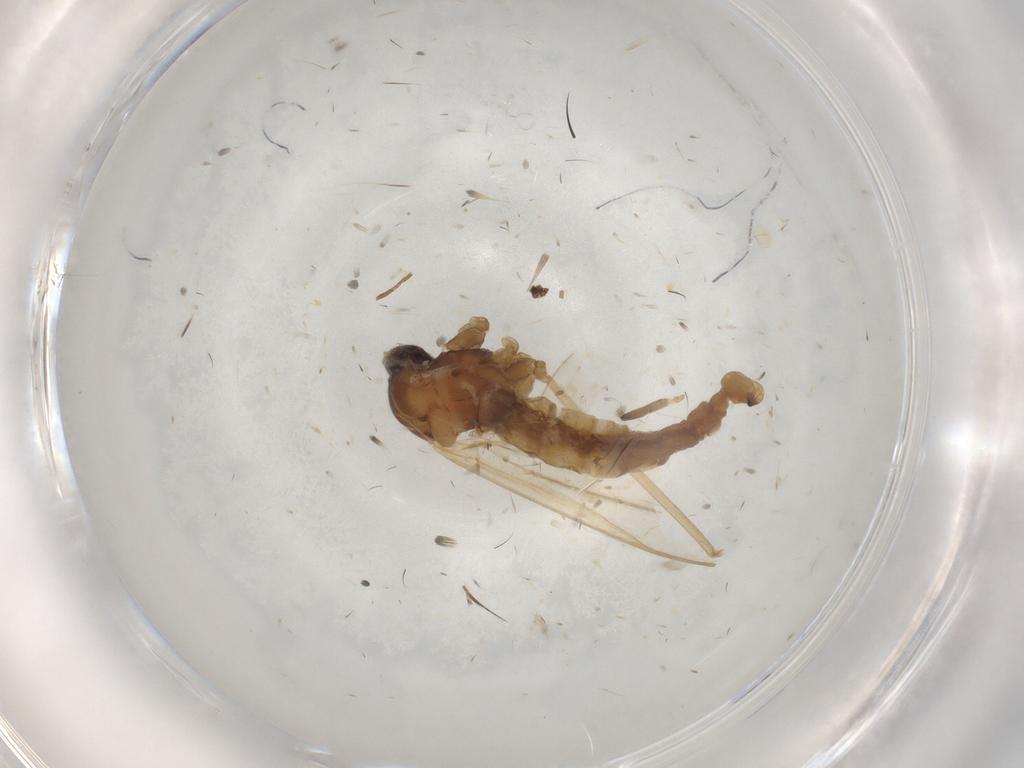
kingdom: Animalia
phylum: Arthropoda
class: Insecta
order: Diptera
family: Cecidomyiidae
